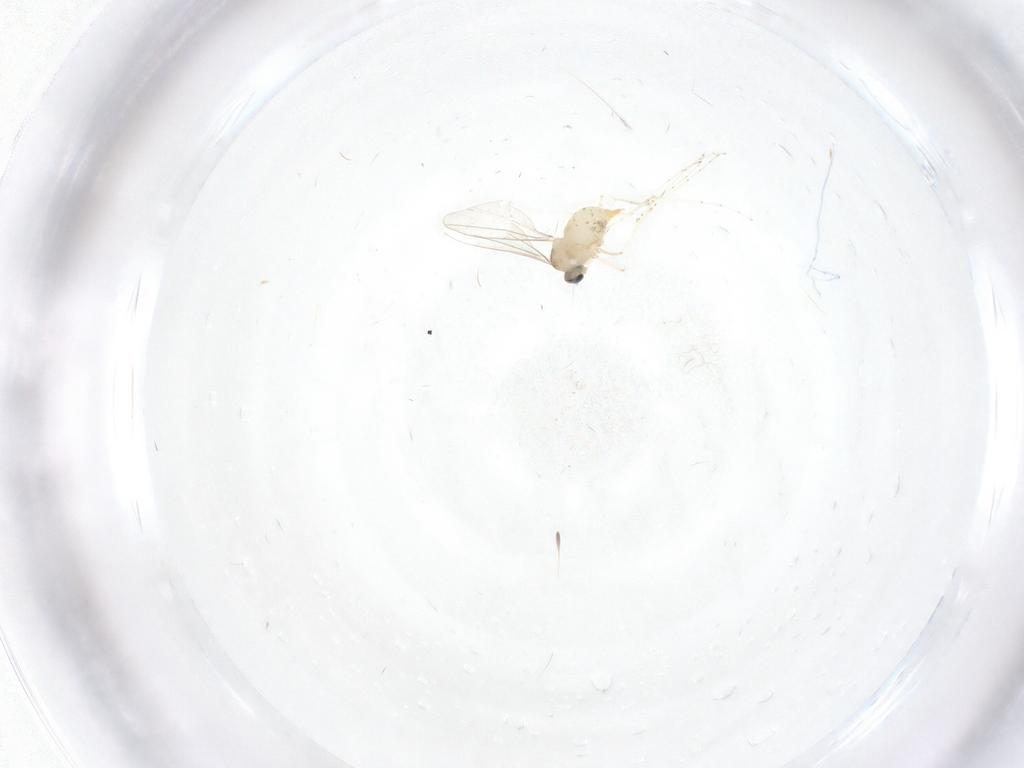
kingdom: Animalia
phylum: Arthropoda
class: Insecta
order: Diptera
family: Cecidomyiidae
